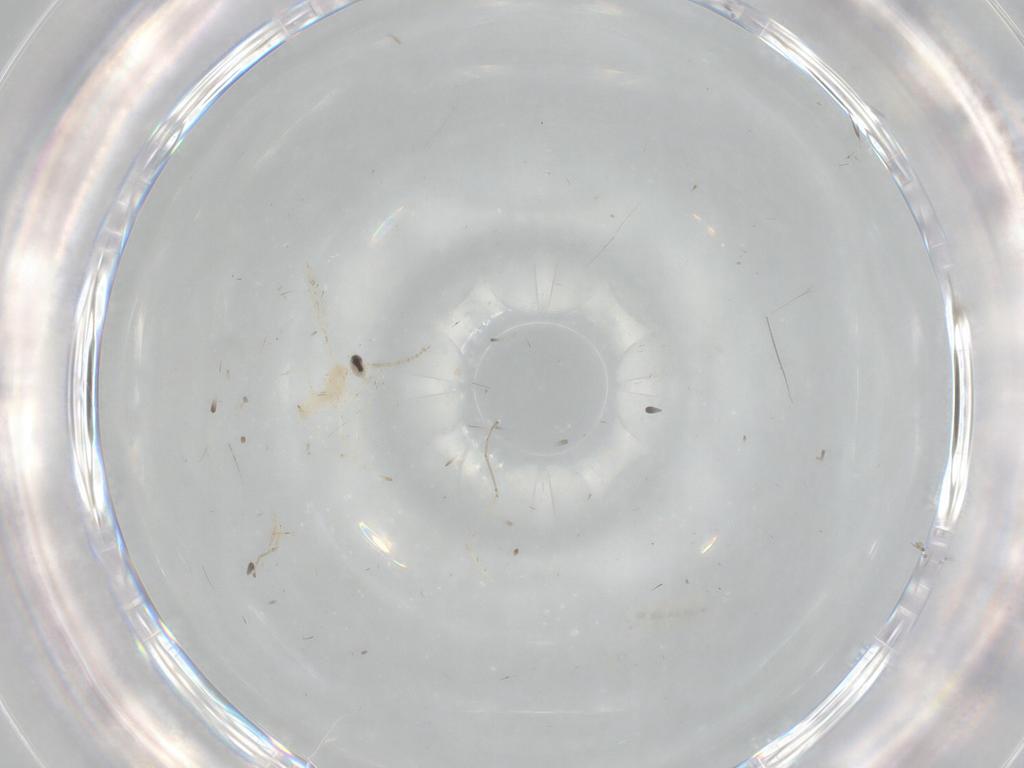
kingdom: Animalia
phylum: Arthropoda
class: Insecta
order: Diptera
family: Cecidomyiidae
